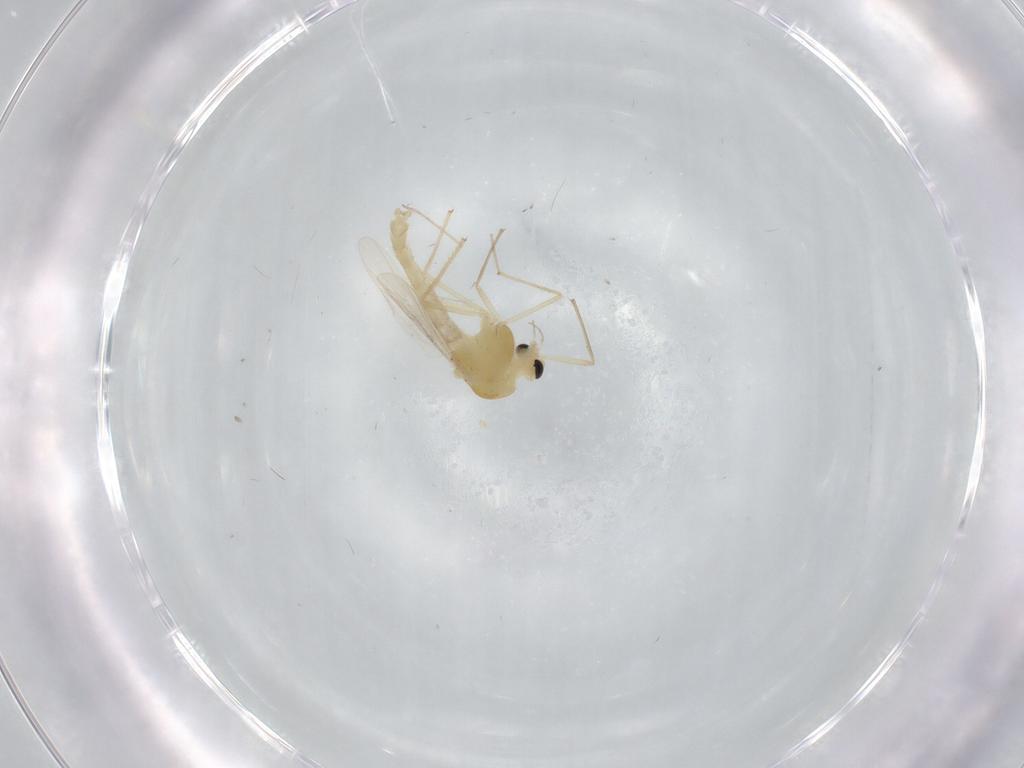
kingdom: Animalia
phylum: Arthropoda
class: Insecta
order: Diptera
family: Chironomidae
